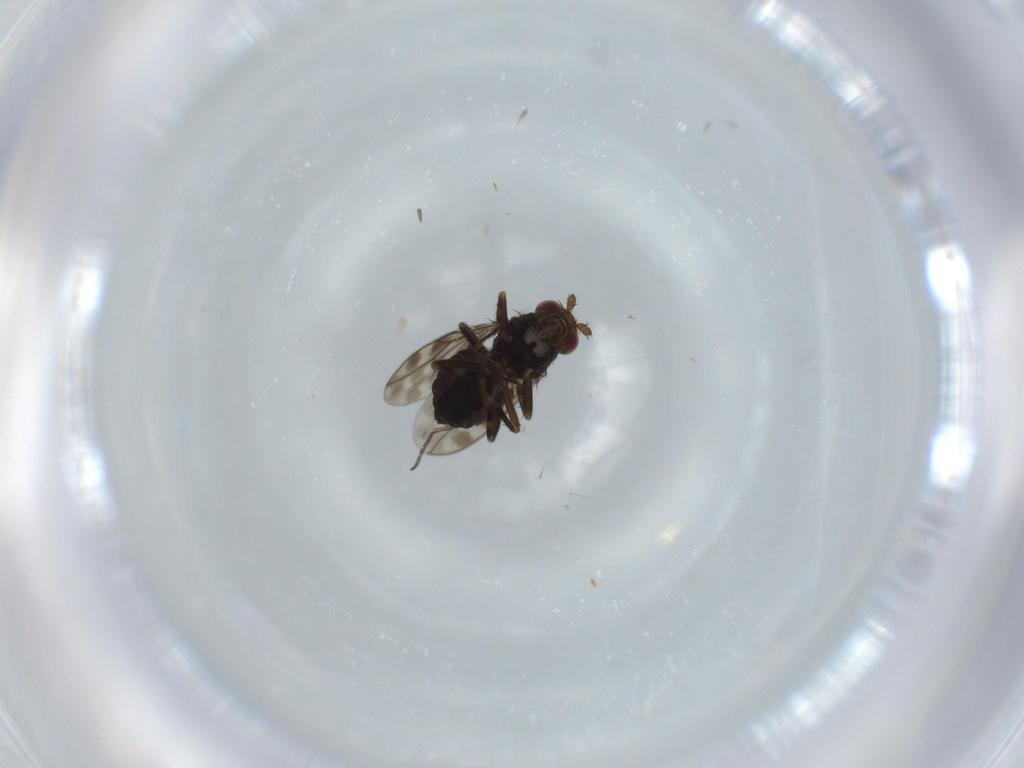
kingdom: Animalia
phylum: Arthropoda
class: Insecta
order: Diptera
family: Sphaeroceridae
